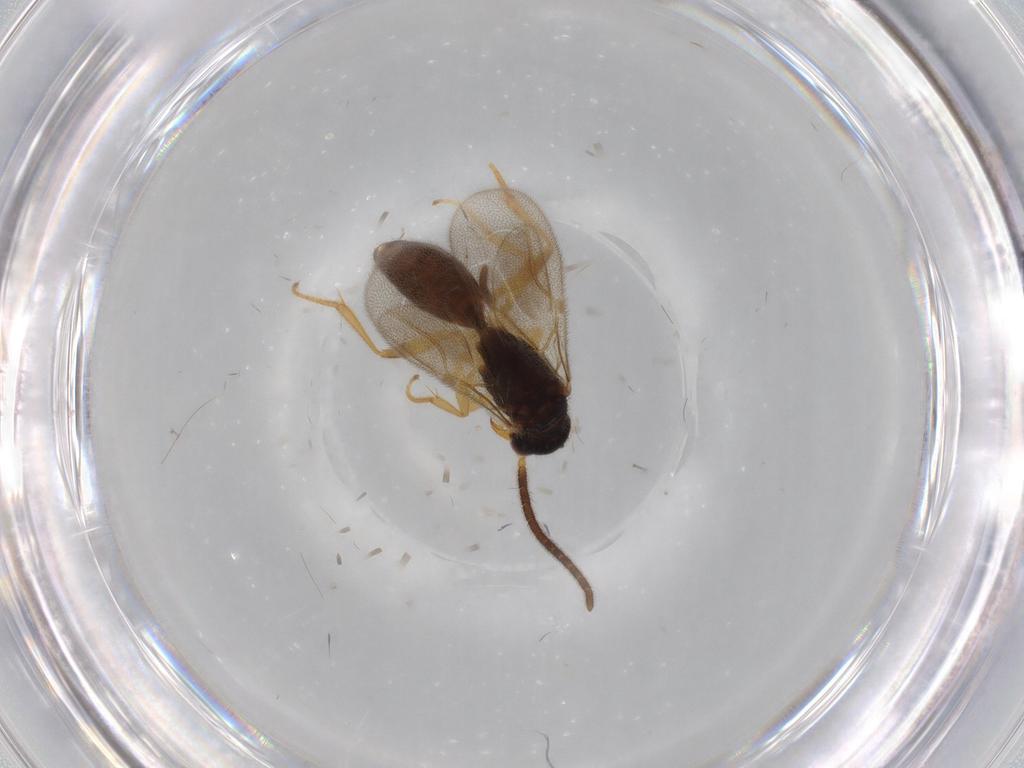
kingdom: Animalia
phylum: Arthropoda
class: Insecta
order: Hymenoptera
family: Bethylidae
